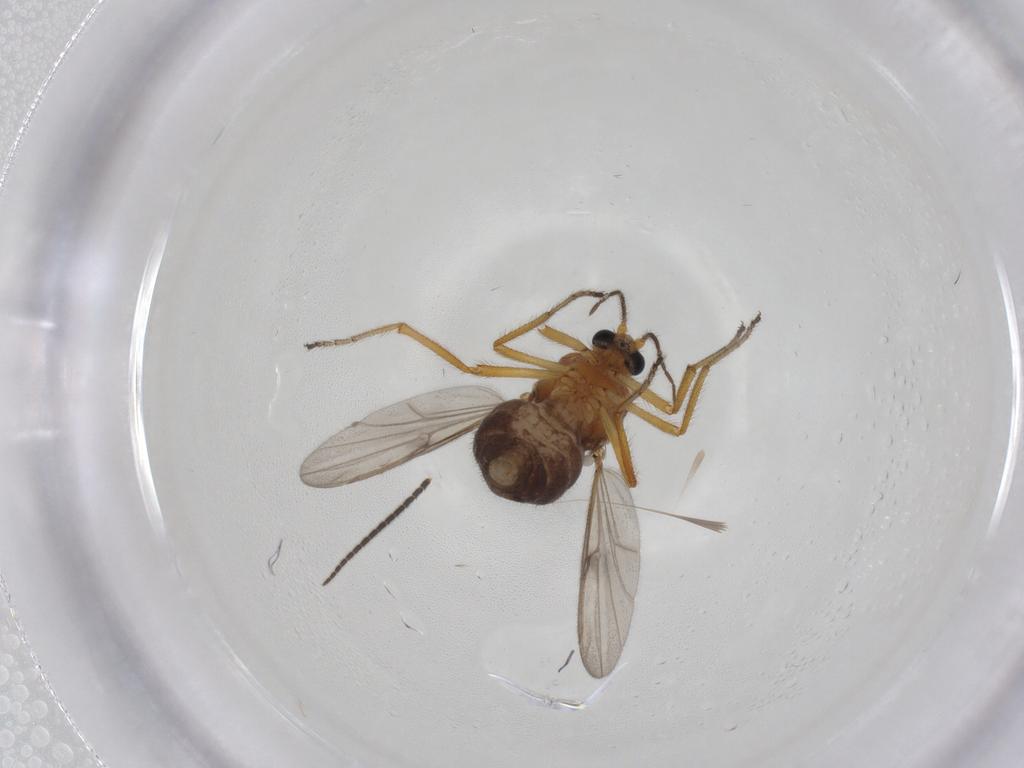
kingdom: Animalia
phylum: Arthropoda
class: Insecta
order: Diptera
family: Ceratopogonidae
